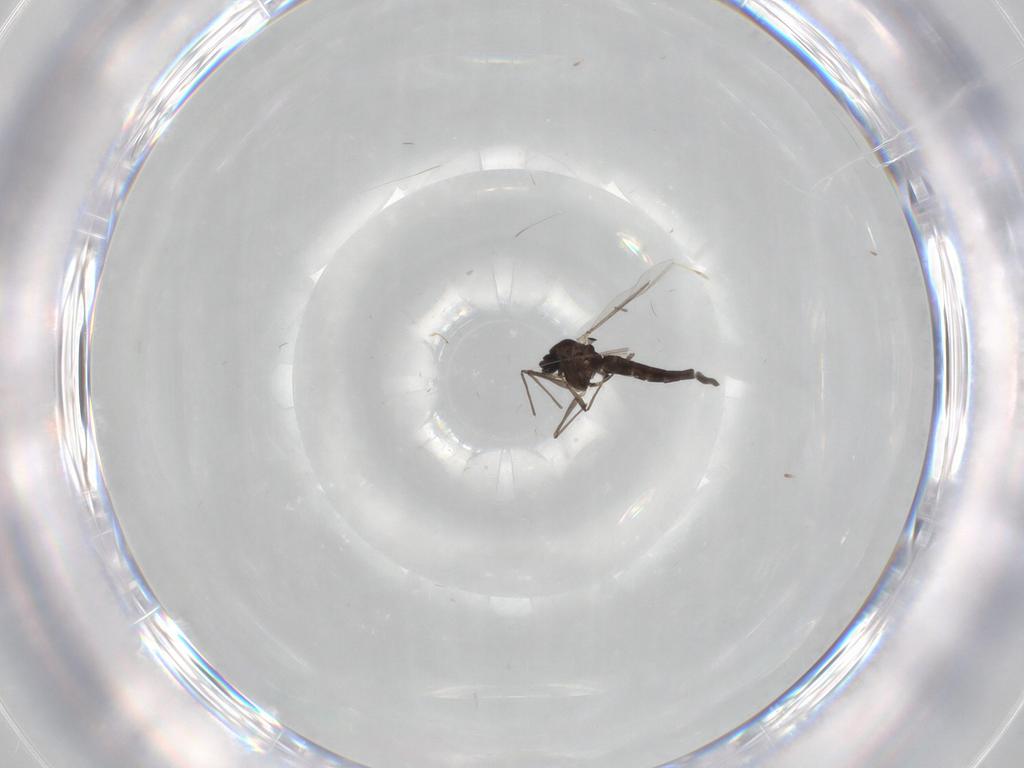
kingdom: Animalia
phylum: Arthropoda
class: Insecta
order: Diptera
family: Chironomidae
